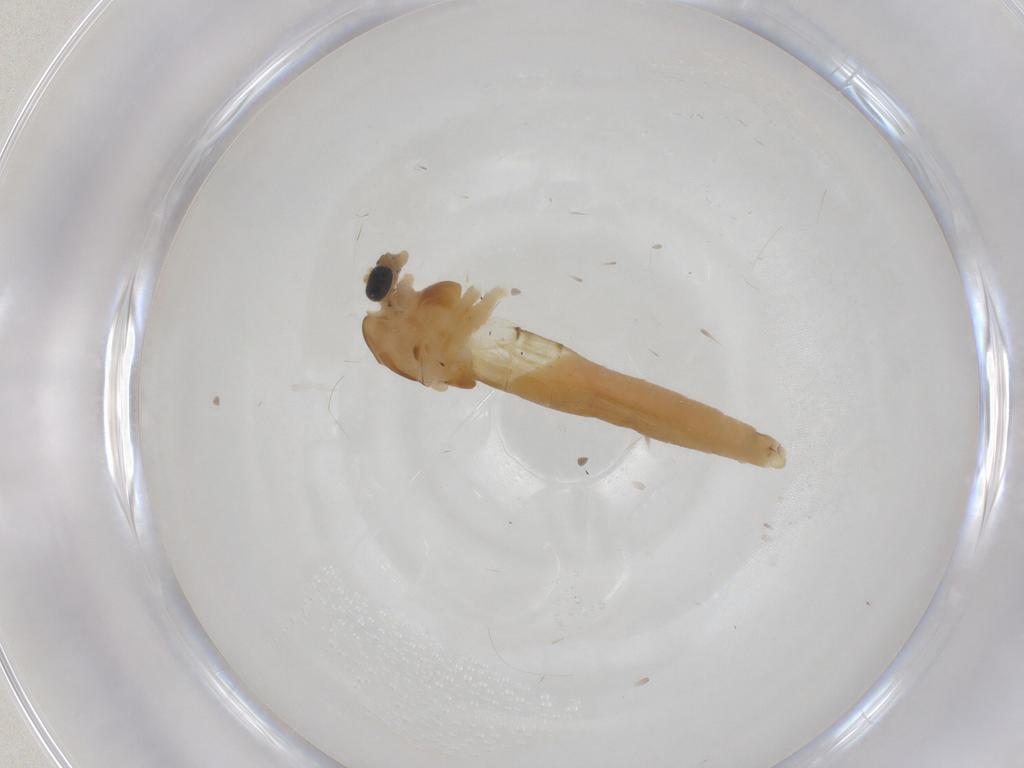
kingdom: Animalia
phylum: Arthropoda
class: Insecta
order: Diptera
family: Chironomidae
